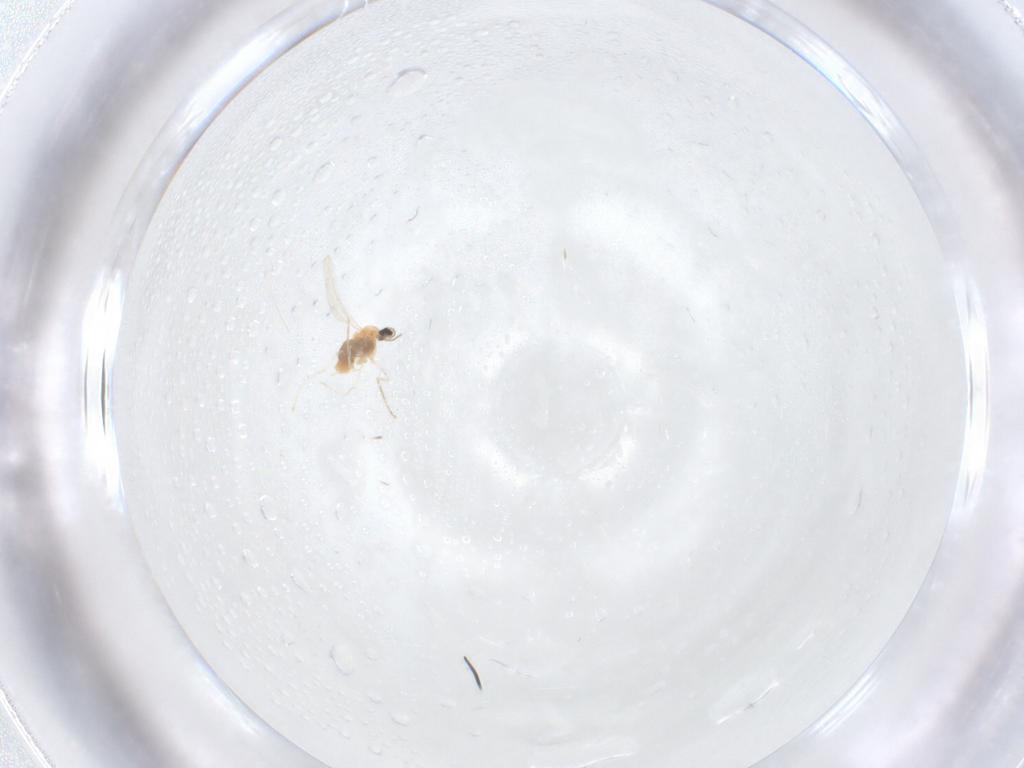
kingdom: Animalia
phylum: Arthropoda
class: Insecta
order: Diptera
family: Cecidomyiidae
